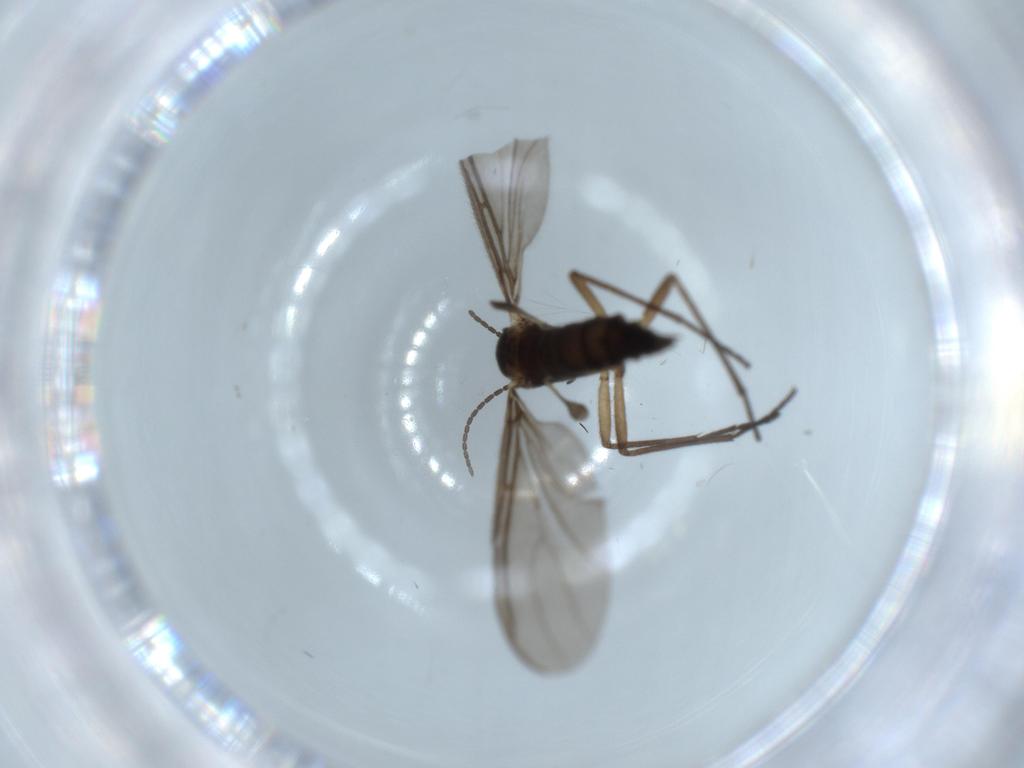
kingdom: Animalia
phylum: Arthropoda
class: Insecta
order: Diptera
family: Sciaridae
